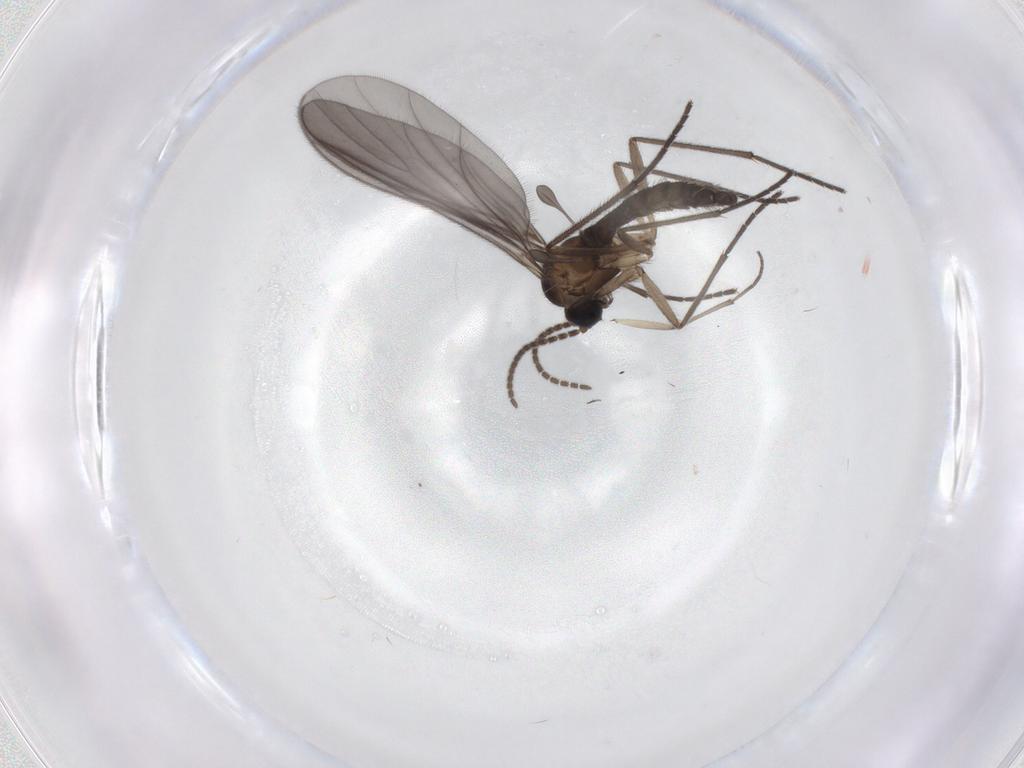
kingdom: Animalia
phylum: Arthropoda
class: Insecta
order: Diptera
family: Sciaridae
